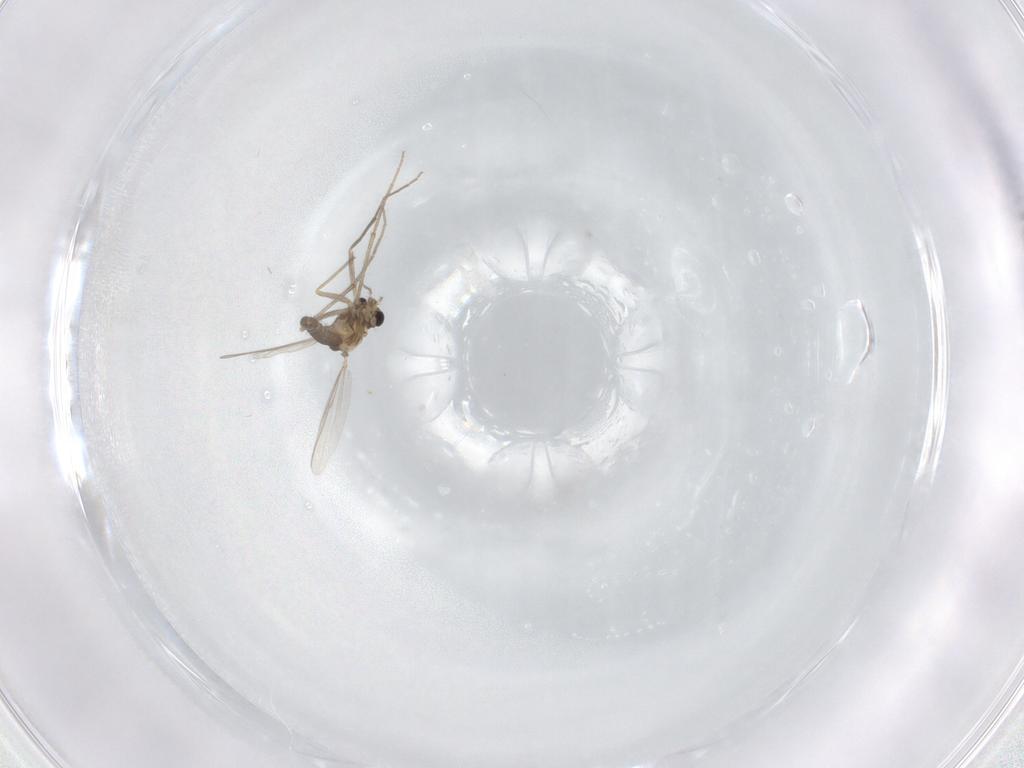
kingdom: Animalia
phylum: Arthropoda
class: Insecta
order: Diptera
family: Chironomidae
